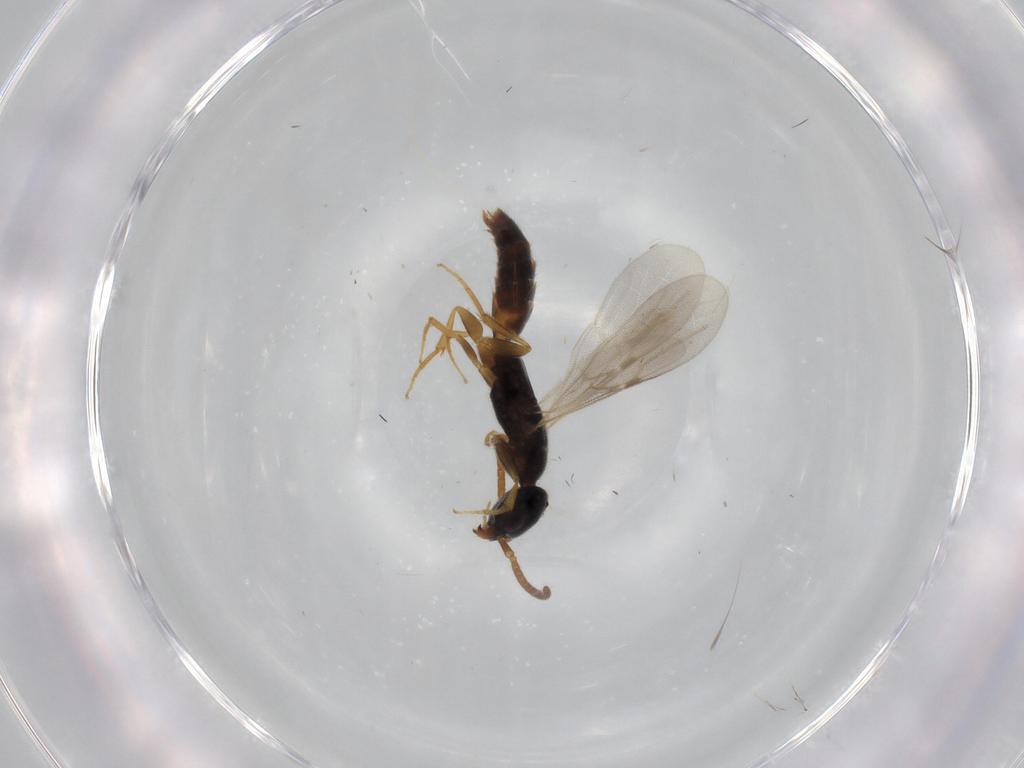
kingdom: Animalia
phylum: Arthropoda
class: Insecta
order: Hymenoptera
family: Bethylidae
